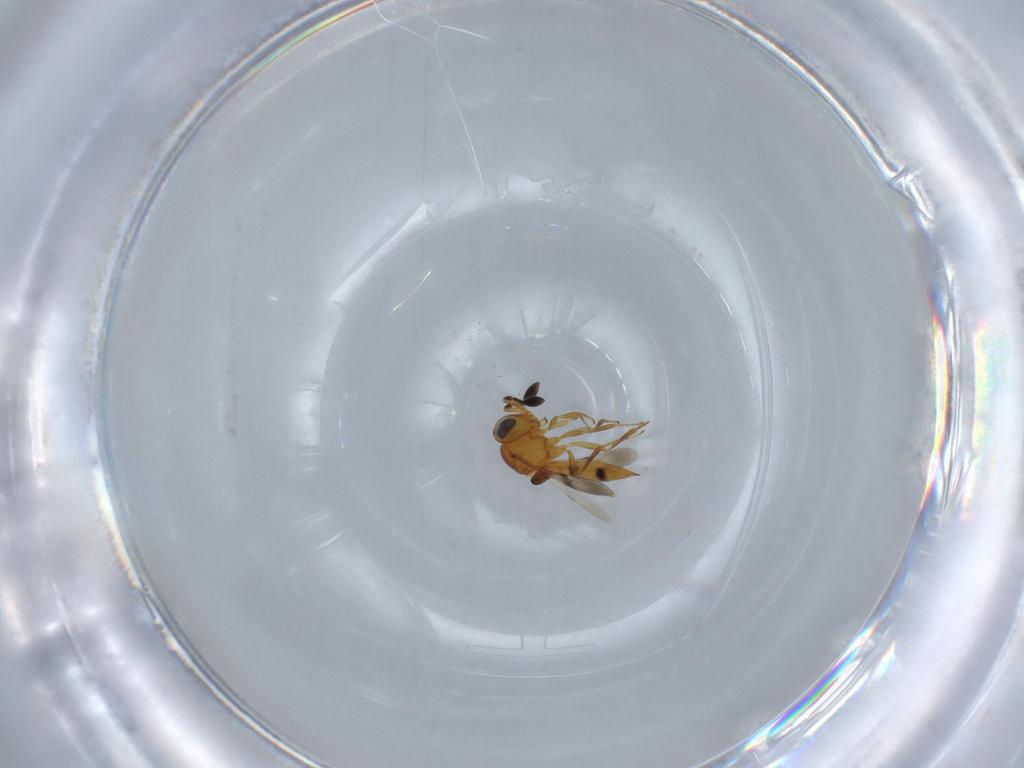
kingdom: Animalia
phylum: Arthropoda
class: Insecta
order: Hymenoptera
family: Scelionidae
